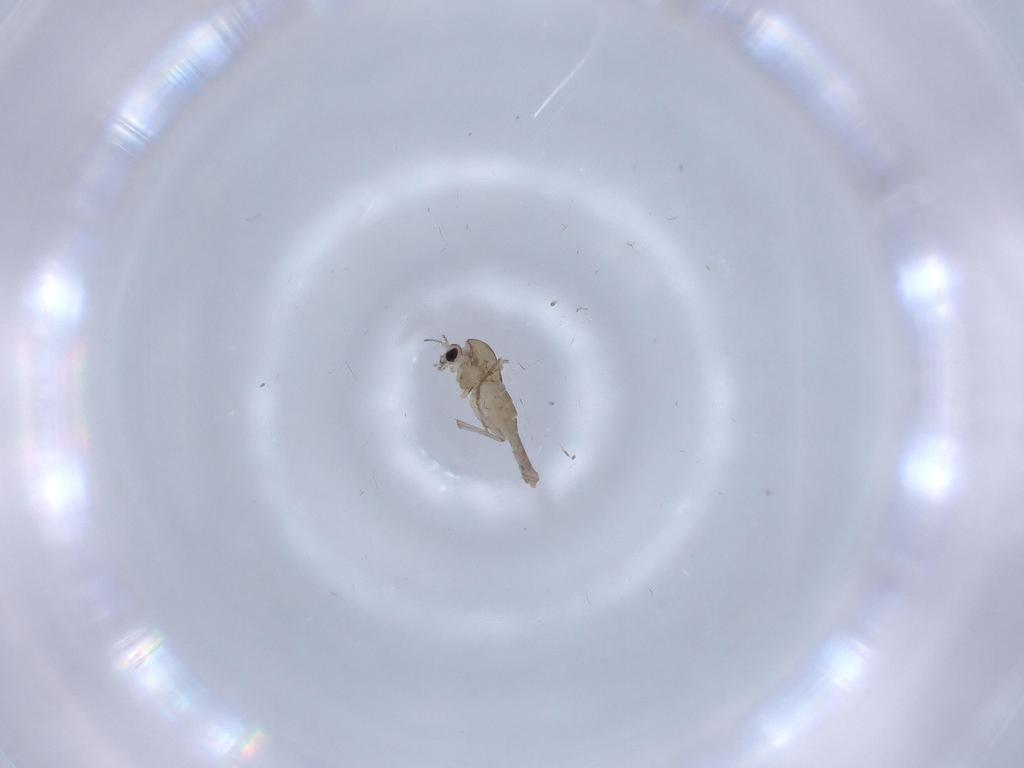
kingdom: Animalia
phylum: Arthropoda
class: Insecta
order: Diptera
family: Chironomidae
